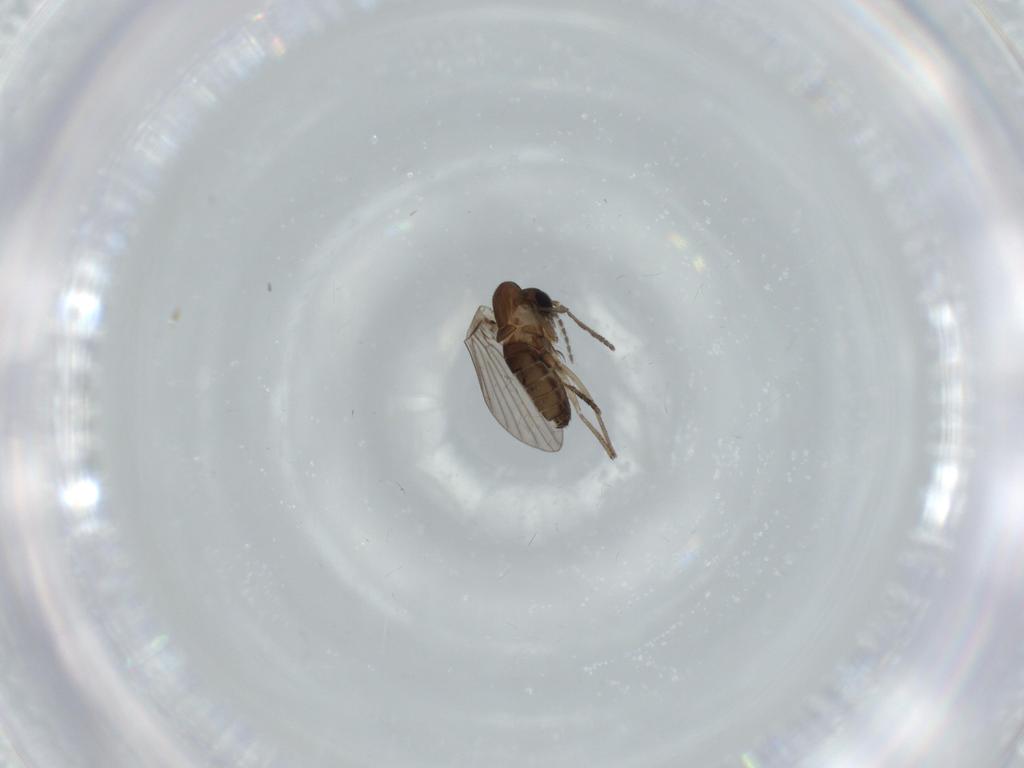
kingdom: Animalia
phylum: Arthropoda
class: Insecta
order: Diptera
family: Psychodidae
